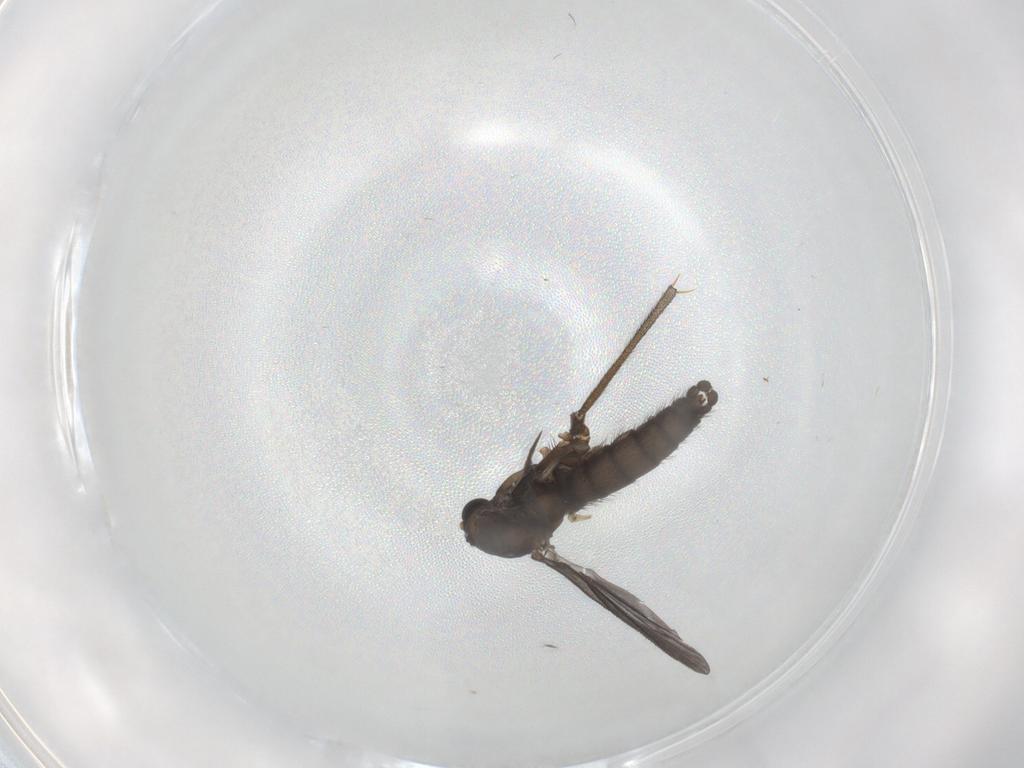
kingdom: Animalia
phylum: Arthropoda
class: Insecta
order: Diptera
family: Sciaridae
